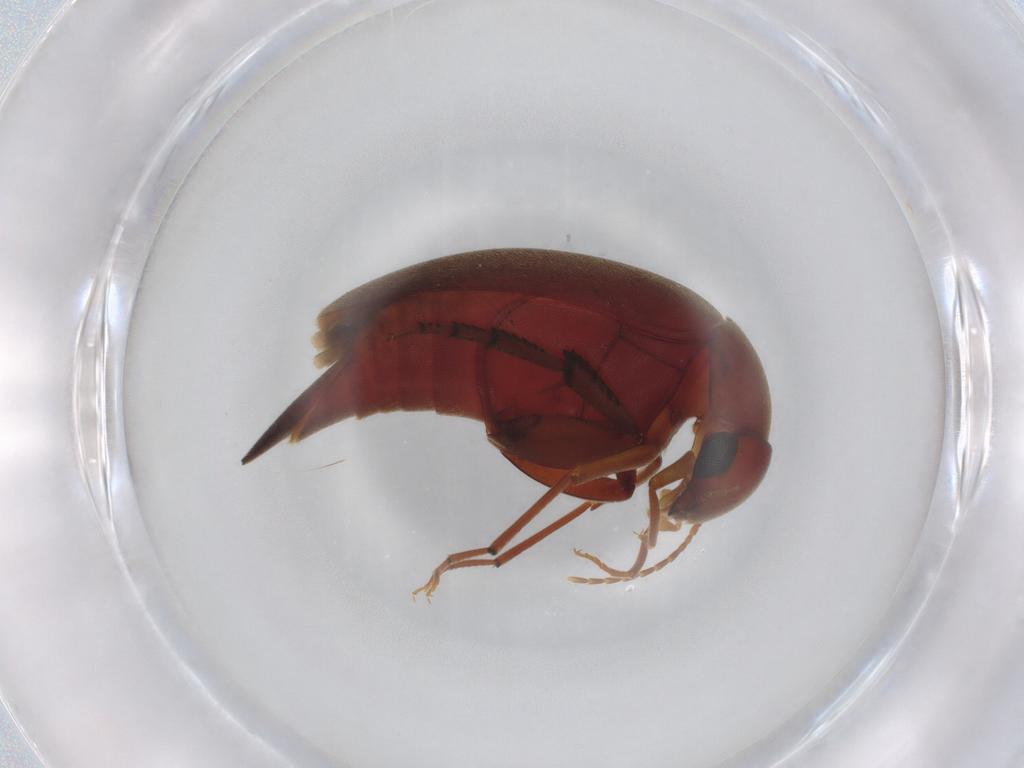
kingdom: Animalia
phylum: Arthropoda
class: Insecta
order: Coleoptera
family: Mordellidae
